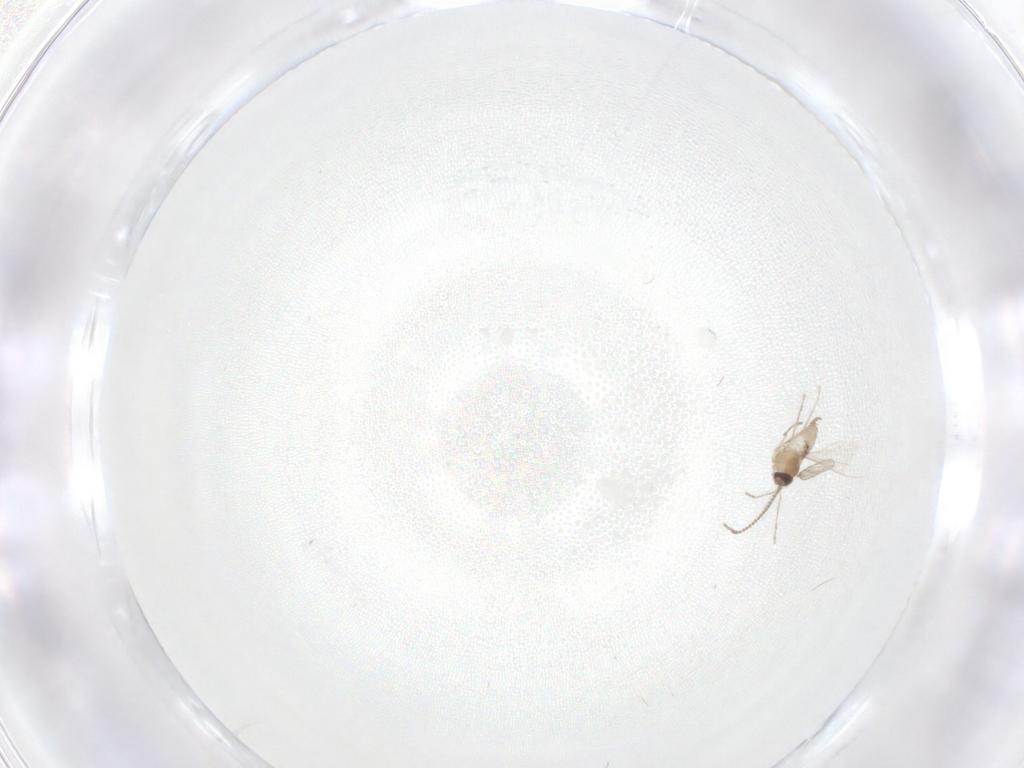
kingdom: Animalia
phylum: Arthropoda
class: Insecta
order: Diptera
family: Cecidomyiidae
